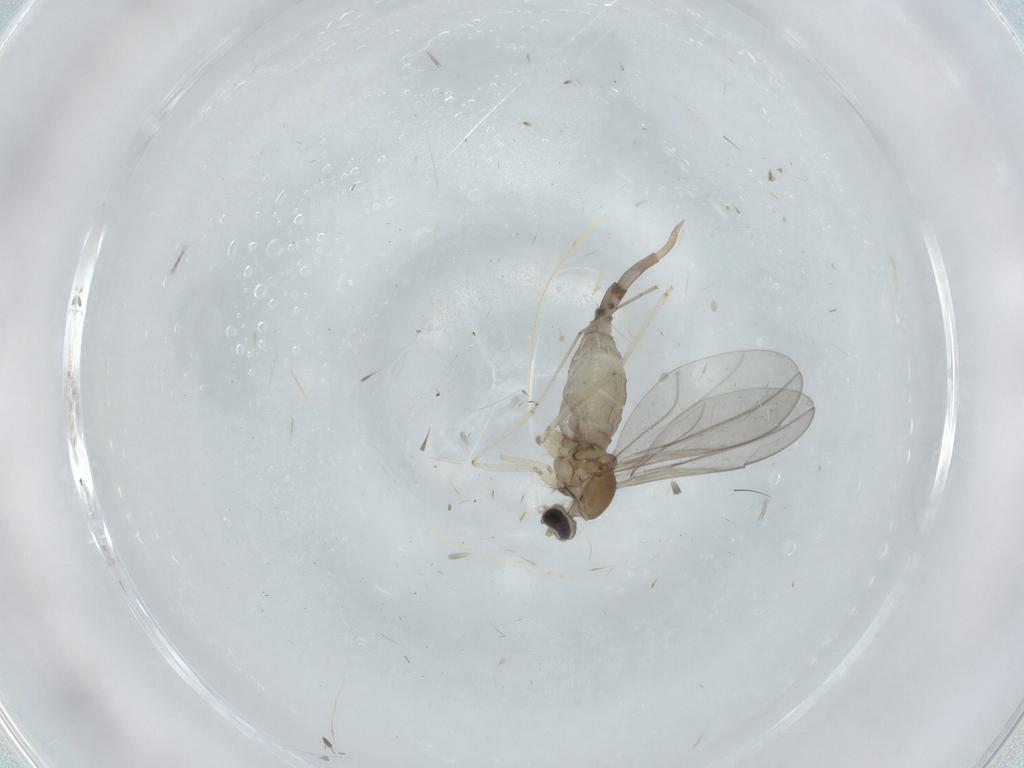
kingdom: Animalia
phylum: Arthropoda
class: Insecta
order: Diptera
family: Cecidomyiidae
